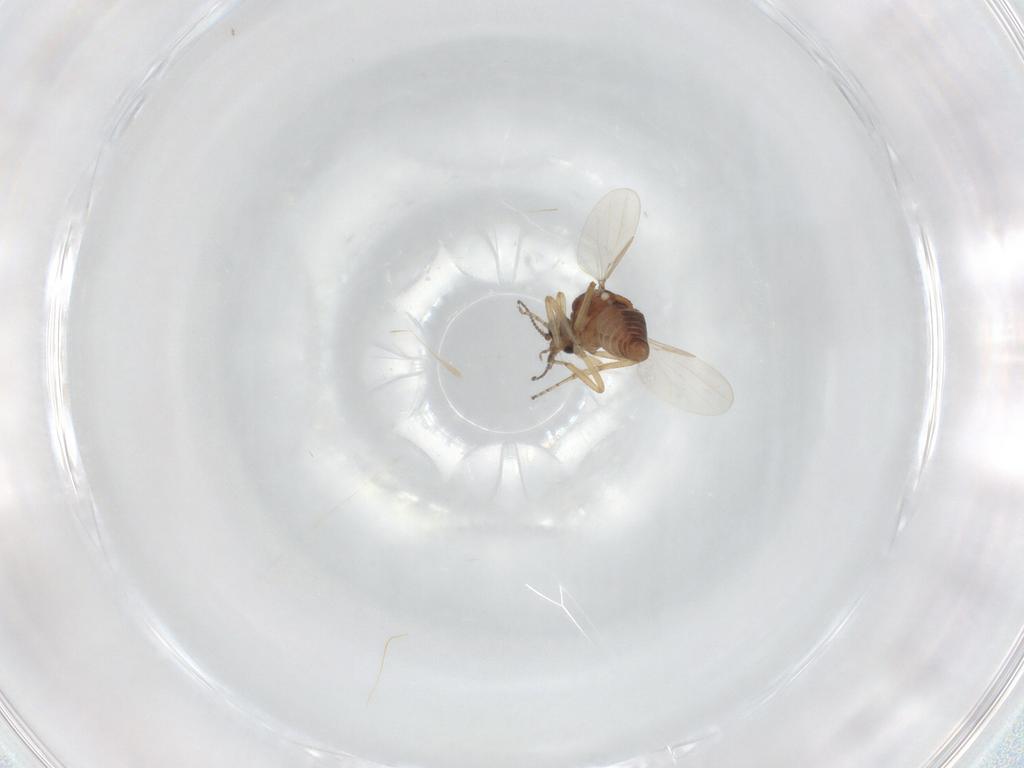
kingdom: Animalia
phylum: Arthropoda
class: Insecta
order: Diptera
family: Ceratopogonidae
